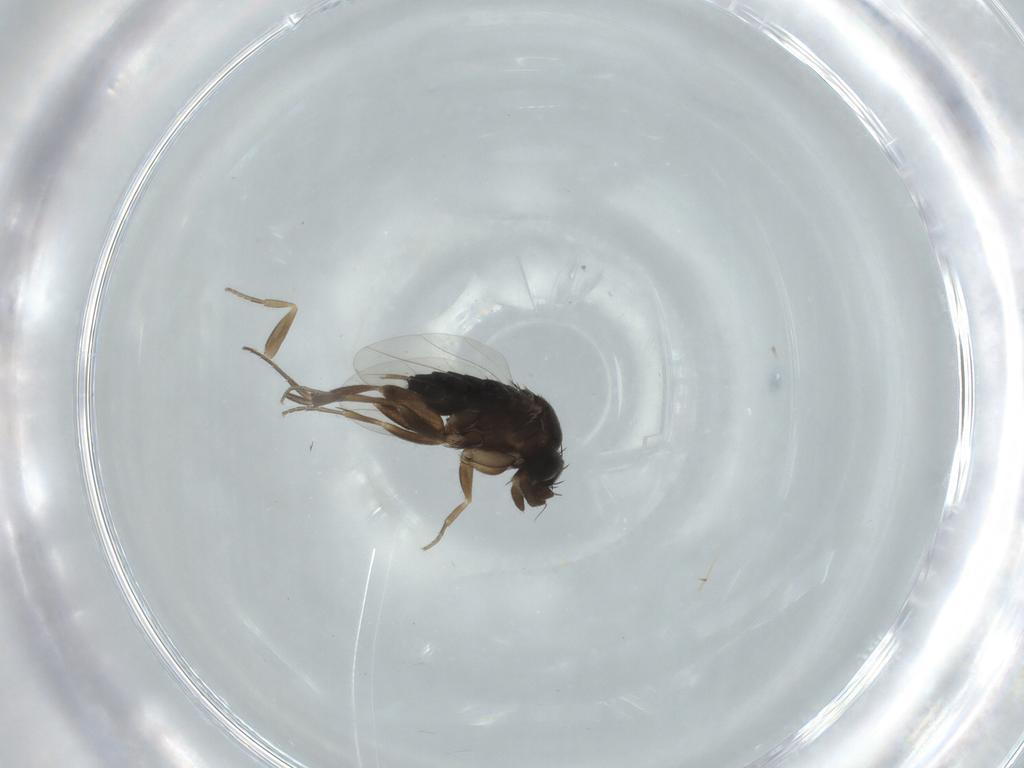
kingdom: Animalia
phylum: Arthropoda
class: Insecta
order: Diptera
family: Phoridae
